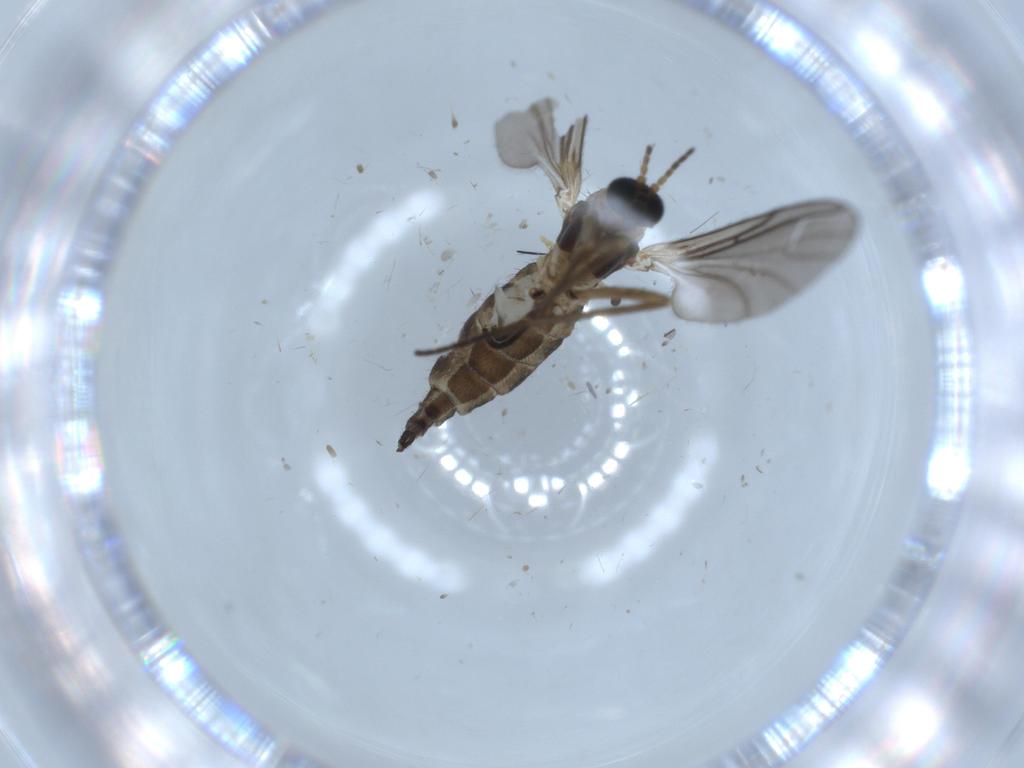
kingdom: Animalia
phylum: Arthropoda
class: Insecta
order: Diptera
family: Sciaridae
